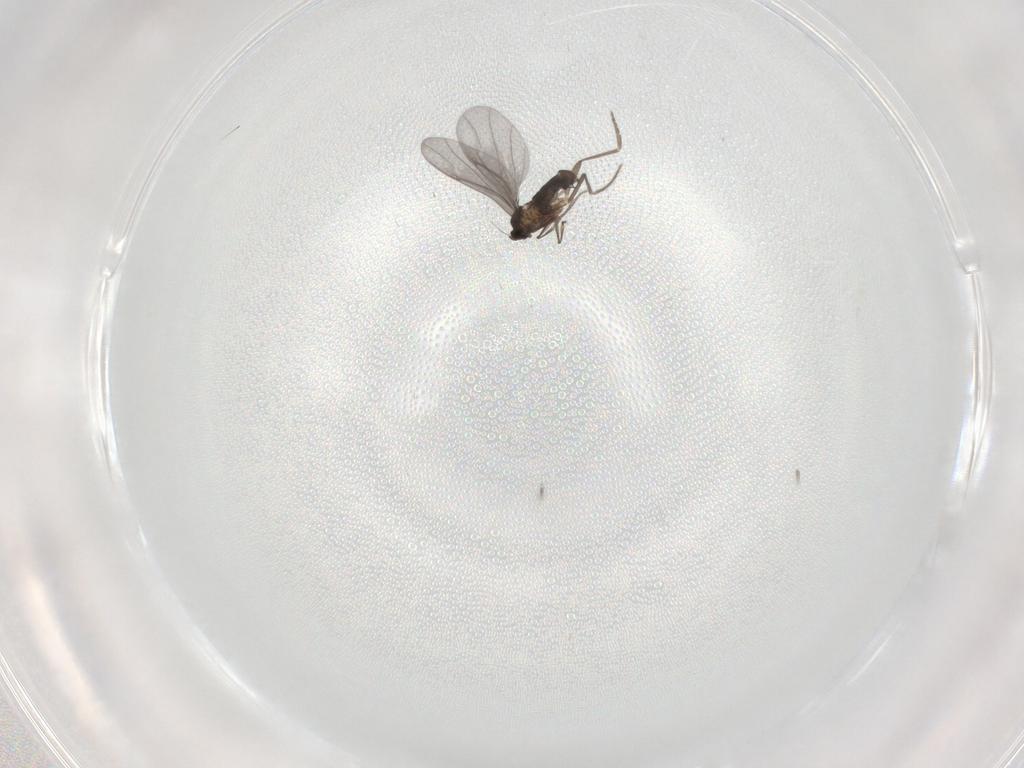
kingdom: Animalia
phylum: Arthropoda
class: Insecta
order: Diptera
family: Phoridae
